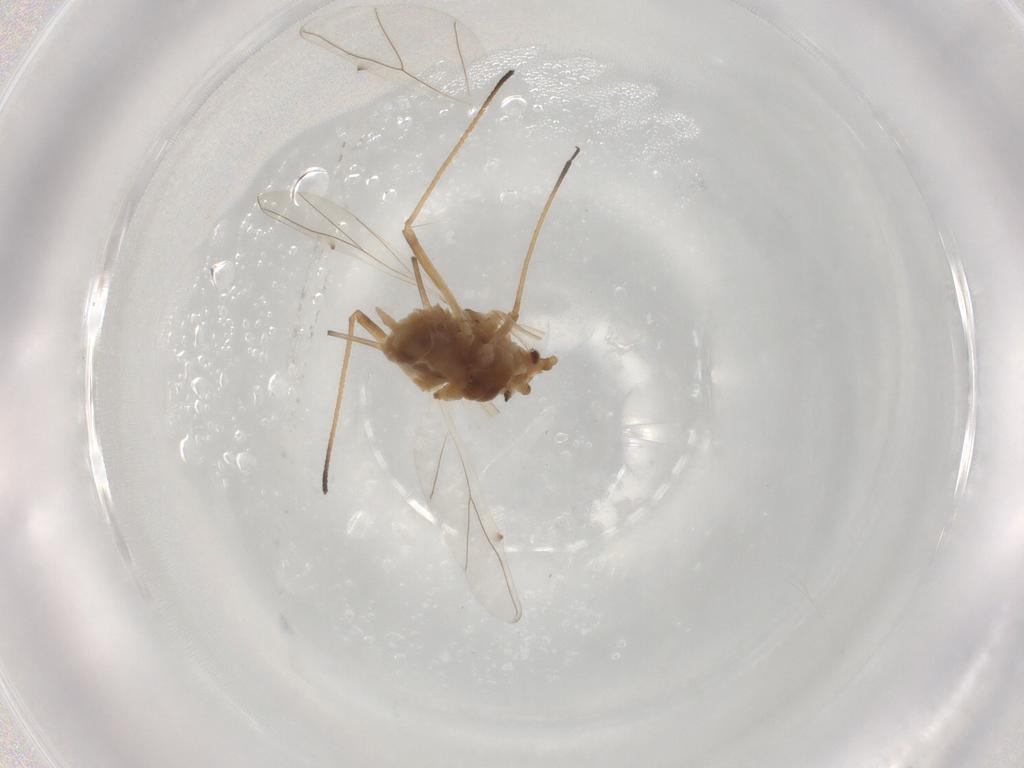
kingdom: Animalia
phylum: Arthropoda
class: Insecta
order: Hemiptera
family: Aphididae
